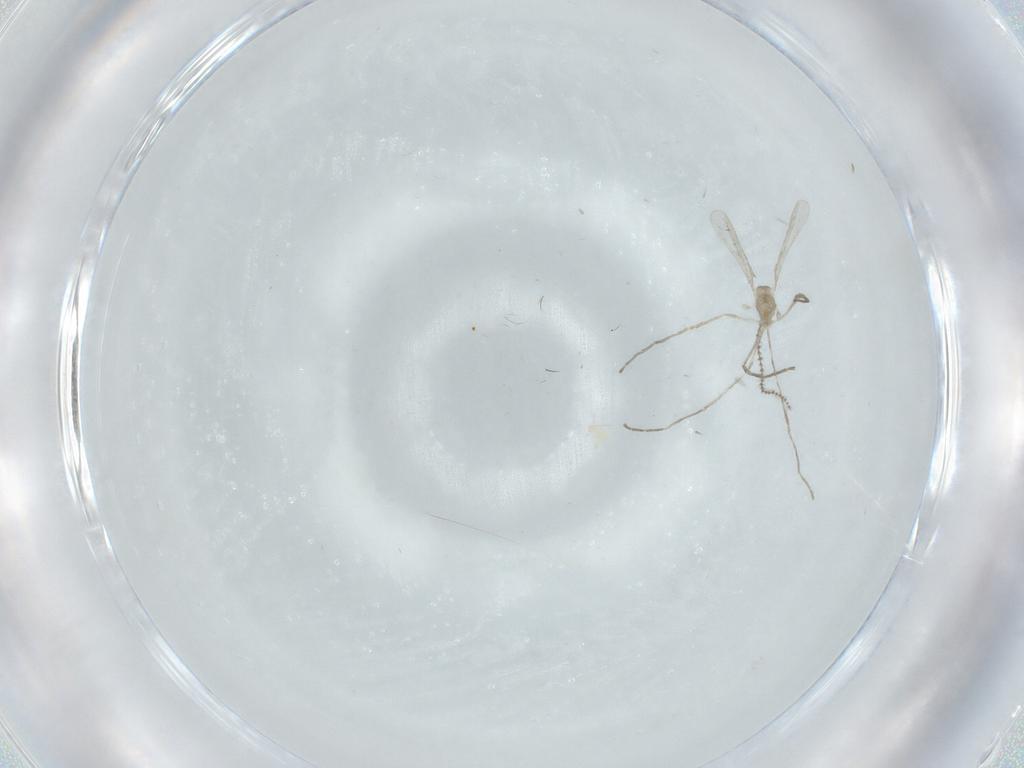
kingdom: Animalia
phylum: Arthropoda
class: Insecta
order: Diptera
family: Cecidomyiidae
